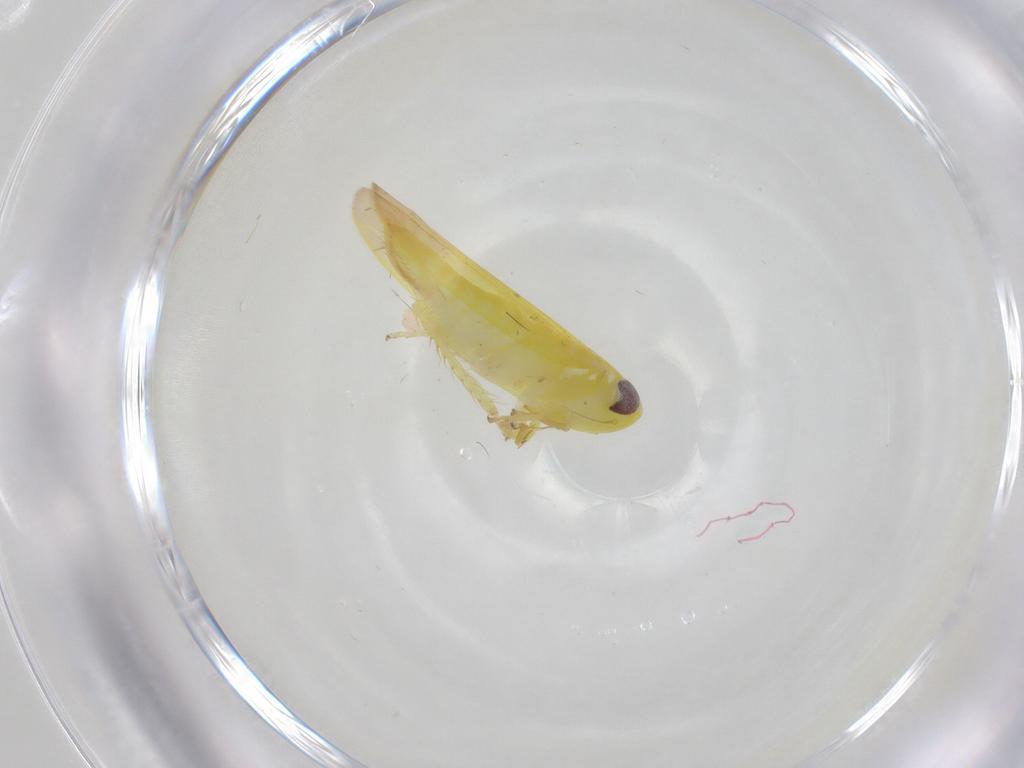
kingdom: Animalia
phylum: Arthropoda
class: Insecta
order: Hemiptera
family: Cicadellidae
